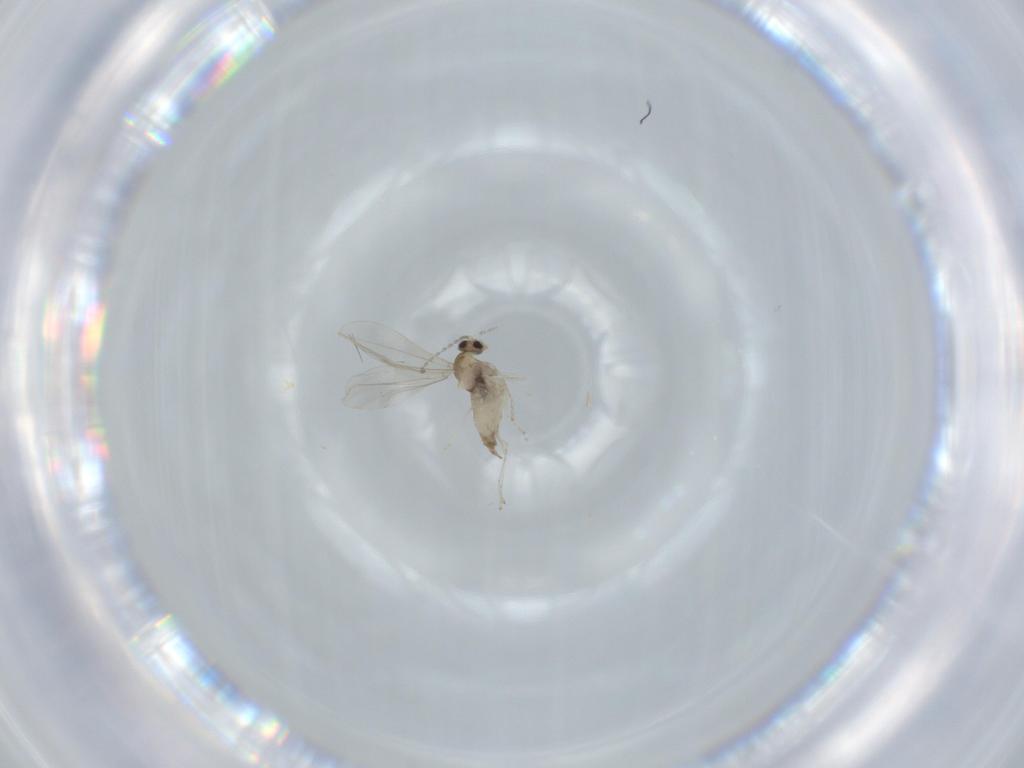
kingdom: Animalia
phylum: Arthropoda
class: Insecta
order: Diptera
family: Cecidomyiidae
